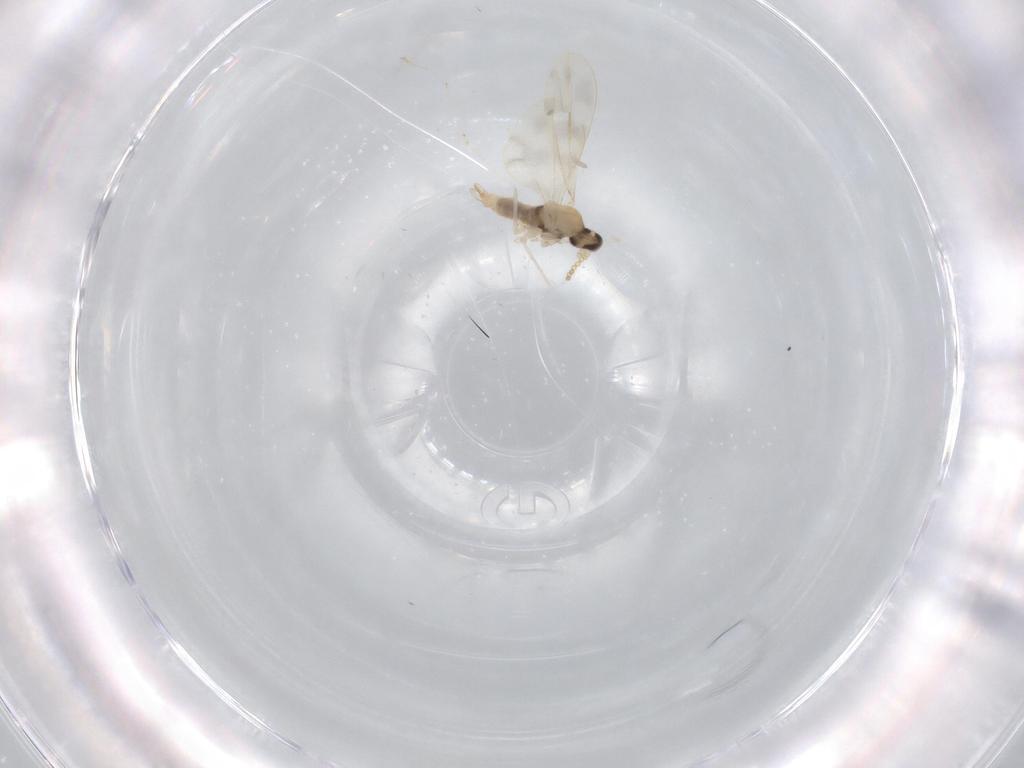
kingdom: Animalia
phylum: Arthropoda
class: Insecta
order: Diptera
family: Cecidomyiidae
